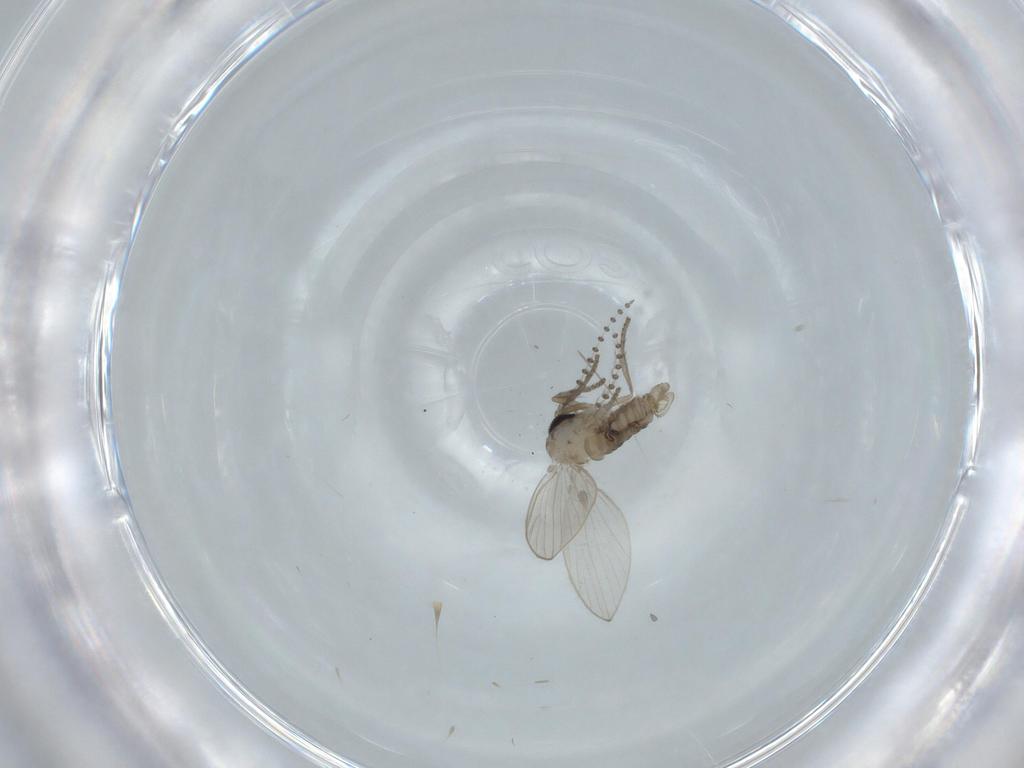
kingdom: Animalia
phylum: Arthropoda
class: Insecta
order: Diptera
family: Psychodidae
